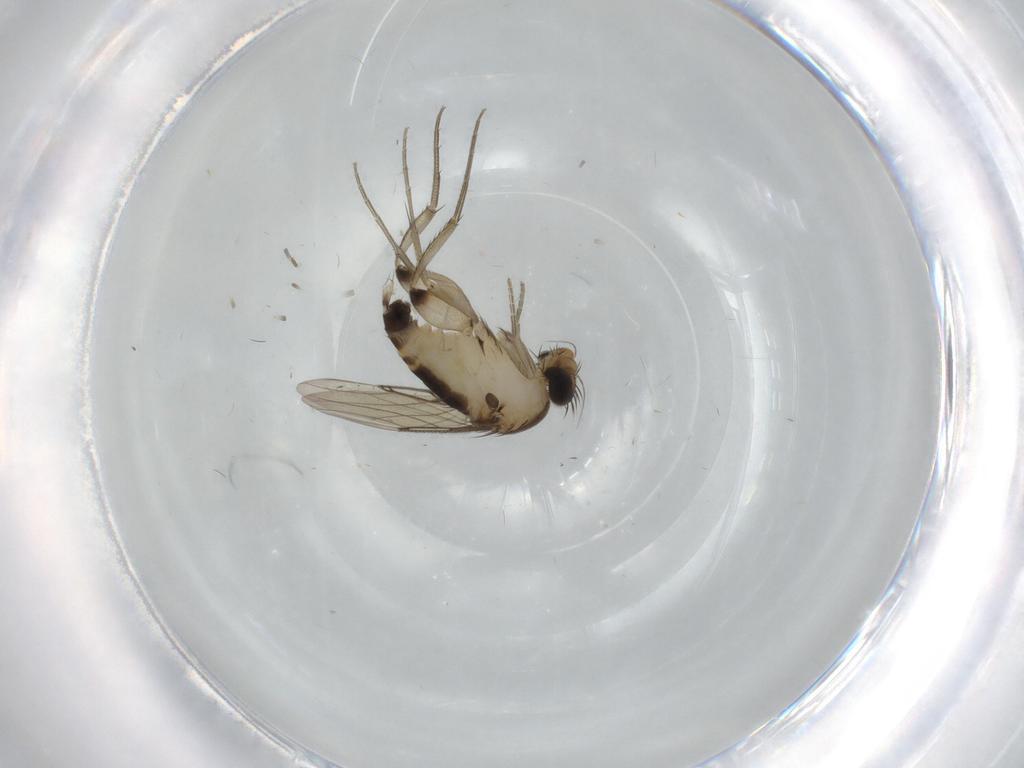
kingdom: Animalia
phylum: Arthropoda
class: Insecta
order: Diptera
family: Phoridae
